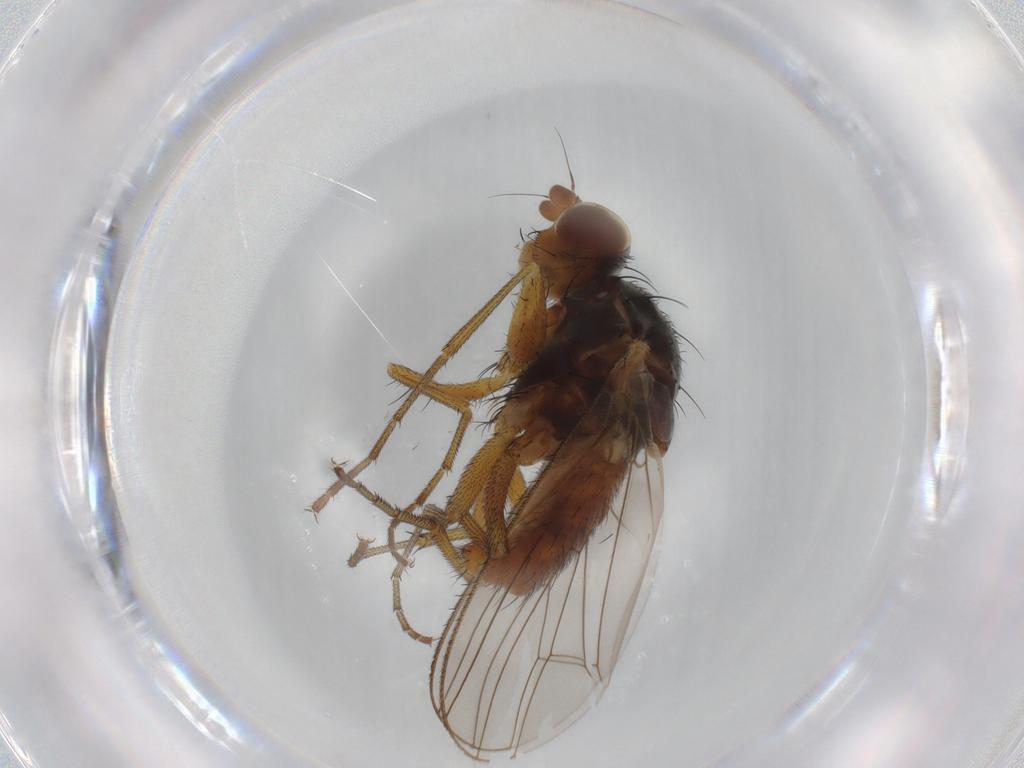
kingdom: Animalia
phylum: Arthropoda
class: Insecta
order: Diptera
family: Heleomyzidae
